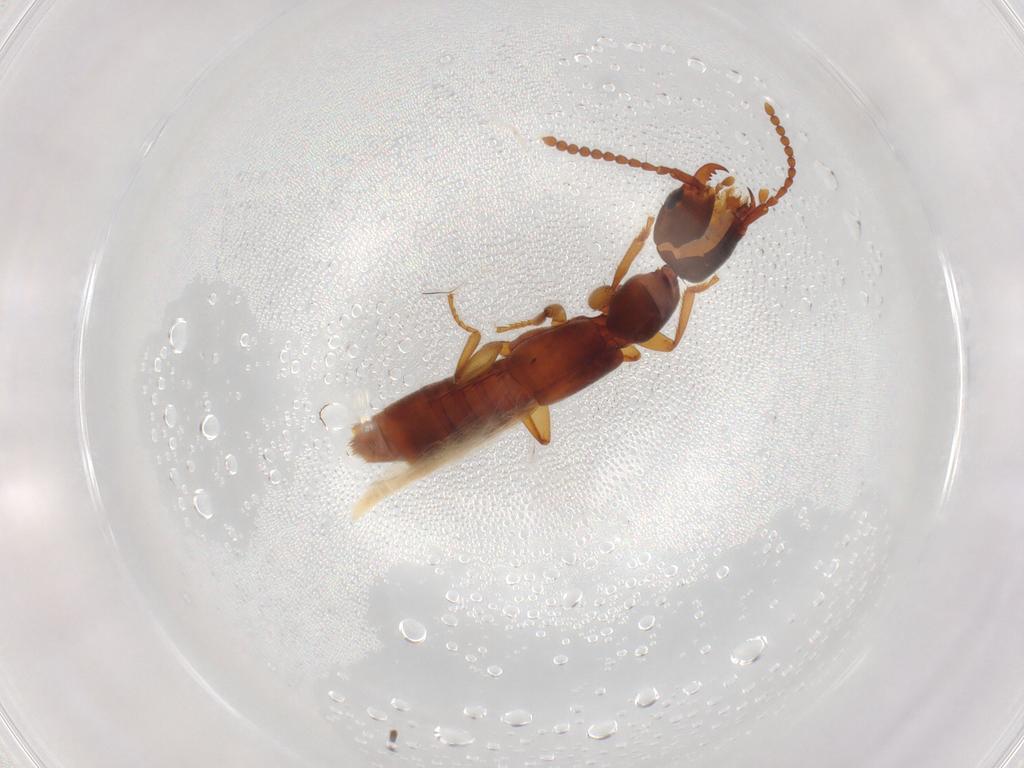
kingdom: Animalia
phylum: Arthropoda
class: Insecta
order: Coleoptera
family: Staphylinidae
